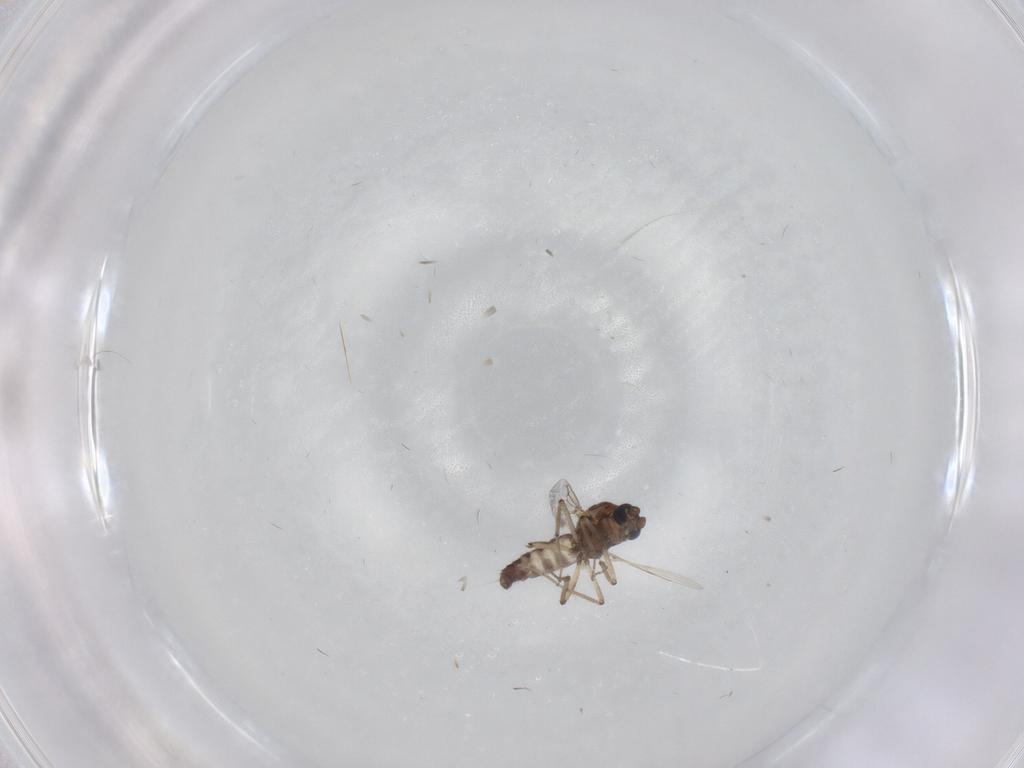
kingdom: Animalia
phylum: Arthropoda
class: Insecta
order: Diptera
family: Ceratopogonidae
